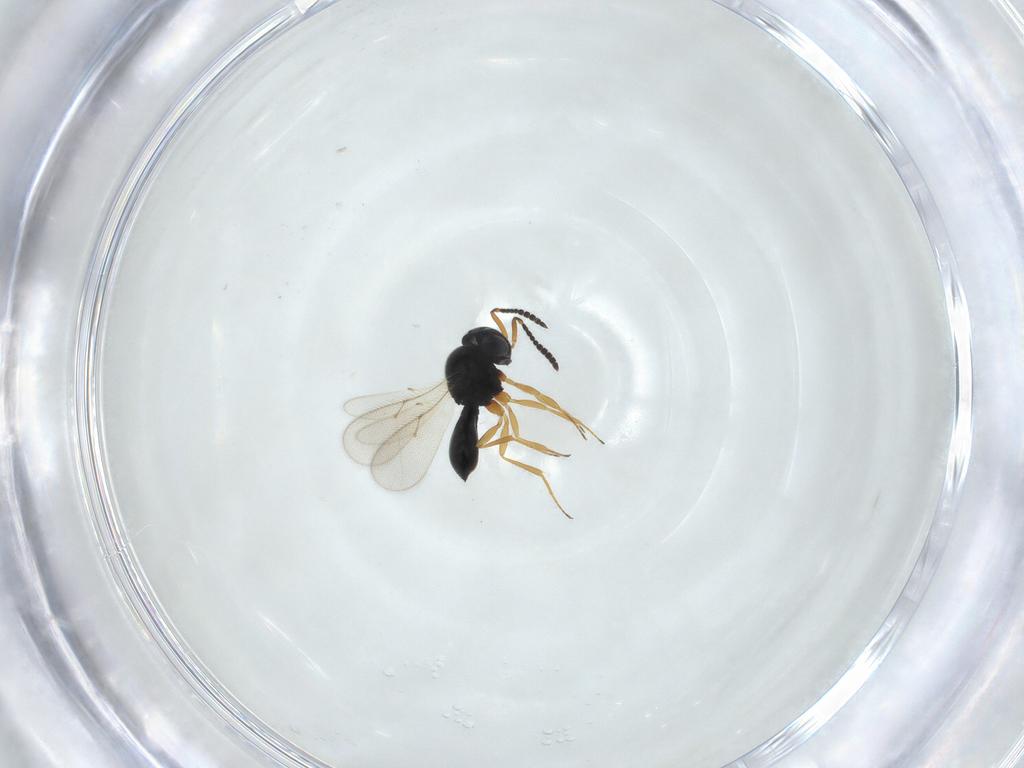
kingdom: Animalia
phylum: Arthropoda
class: Insecta
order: Hymenoptera
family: Scelionidae
